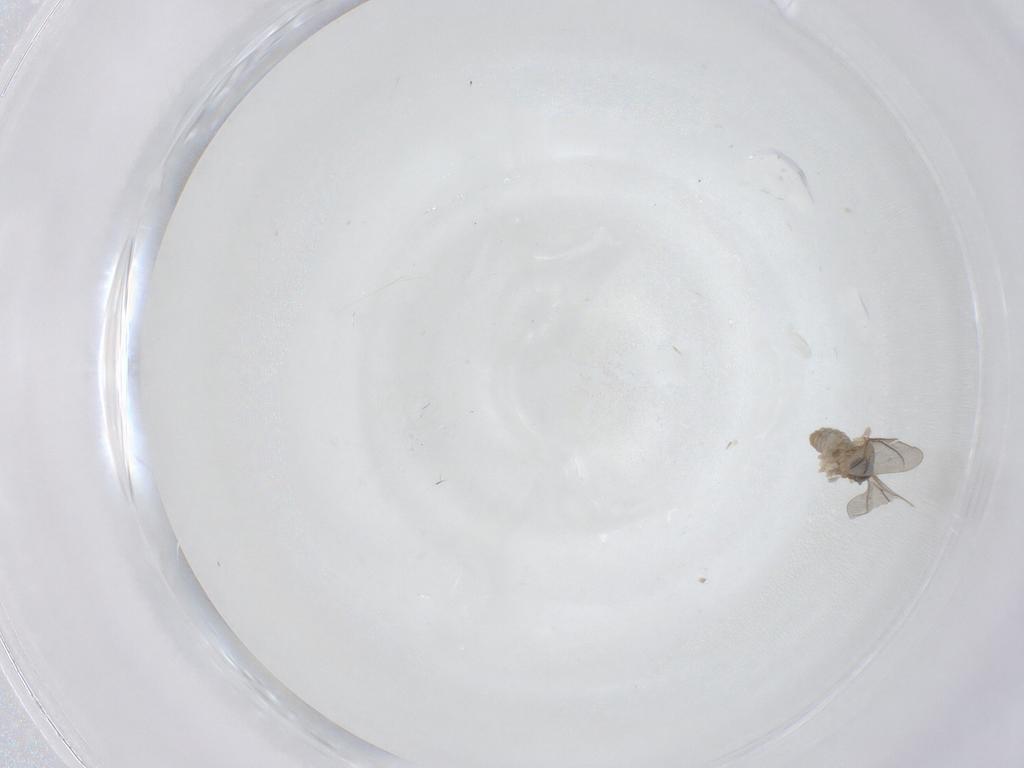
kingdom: Animalia
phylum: Arthropoda
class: Insecta
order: Diptera
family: Cecidomyiidae
